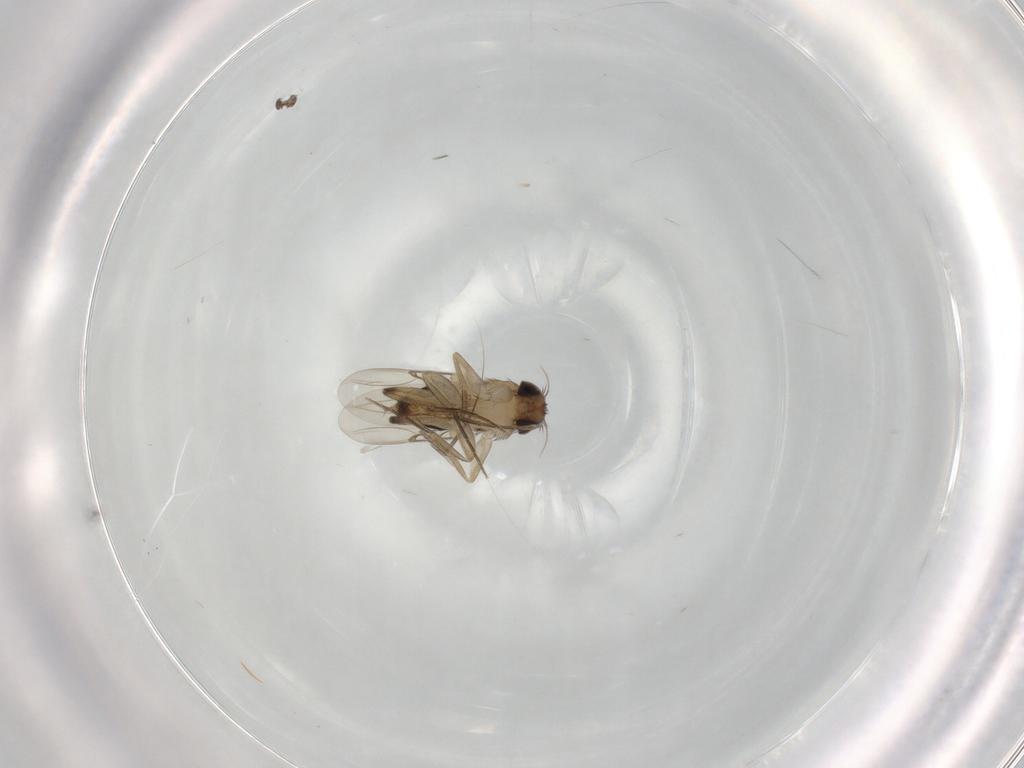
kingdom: Animalia
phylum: Arthropoda
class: Insecta
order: Diptera
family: Phoridae
